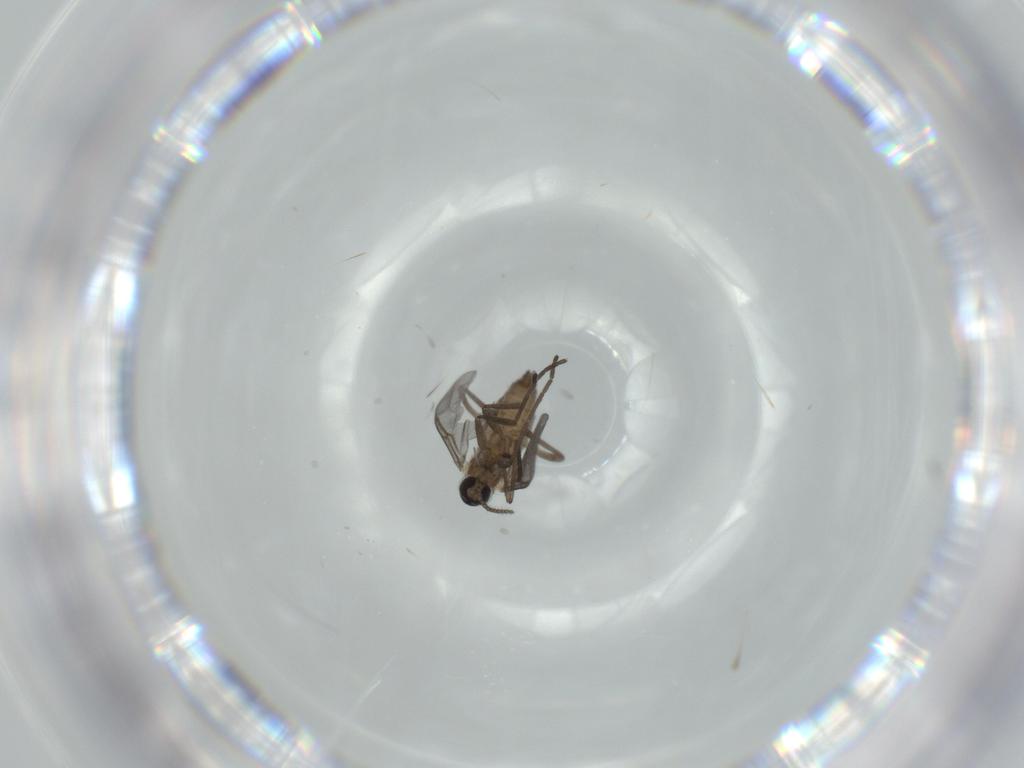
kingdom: Animalia
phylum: Arthropoda
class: Insecta
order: Diptera
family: Cecidomyiidae
